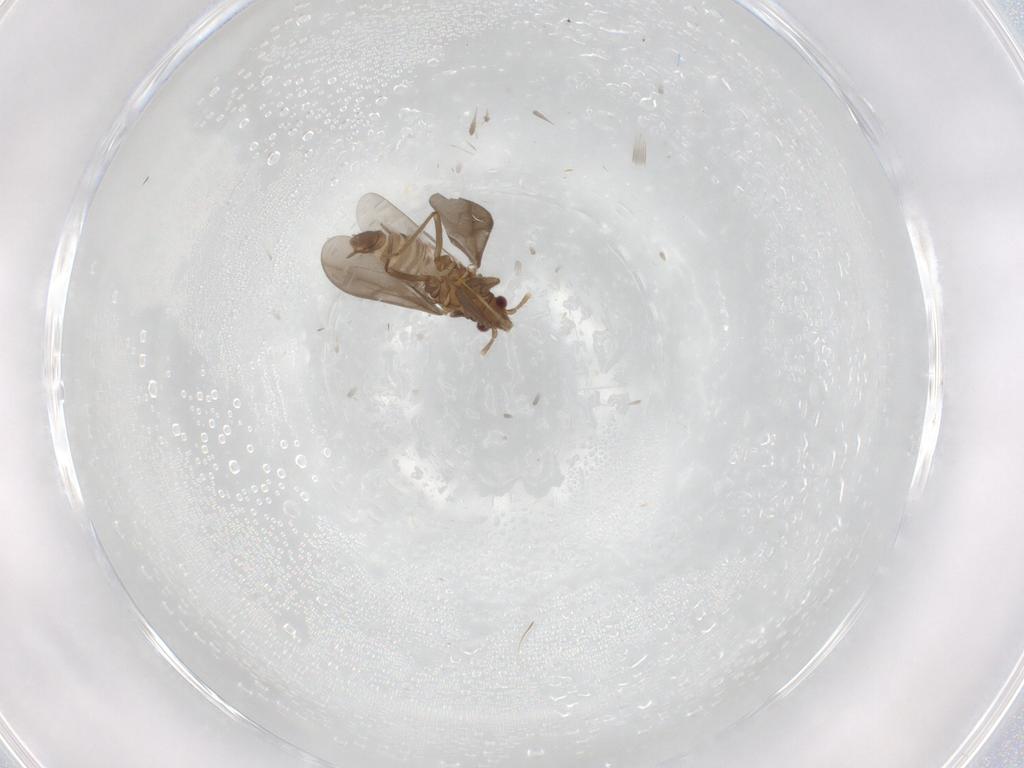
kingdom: Animalia
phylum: Arthropoda
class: Insecta
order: Hemiptera
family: Ceratocombidae
